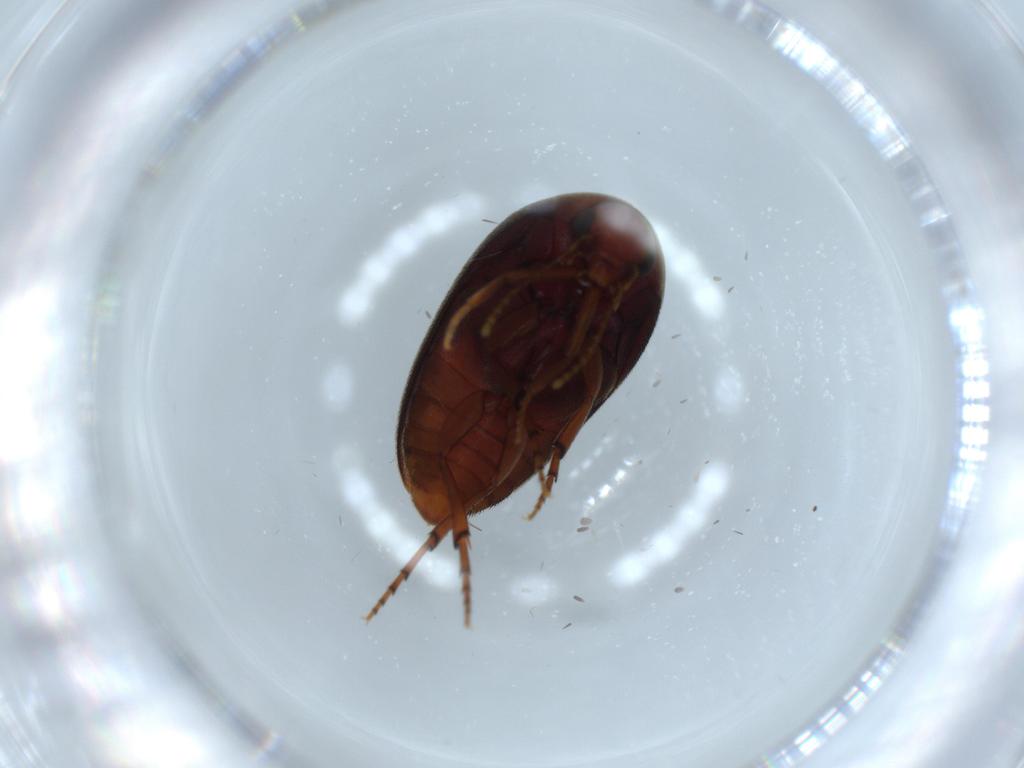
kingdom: Animalia
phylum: Arthropoda
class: Insecta
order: Coleoptera
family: Eucinetidae
